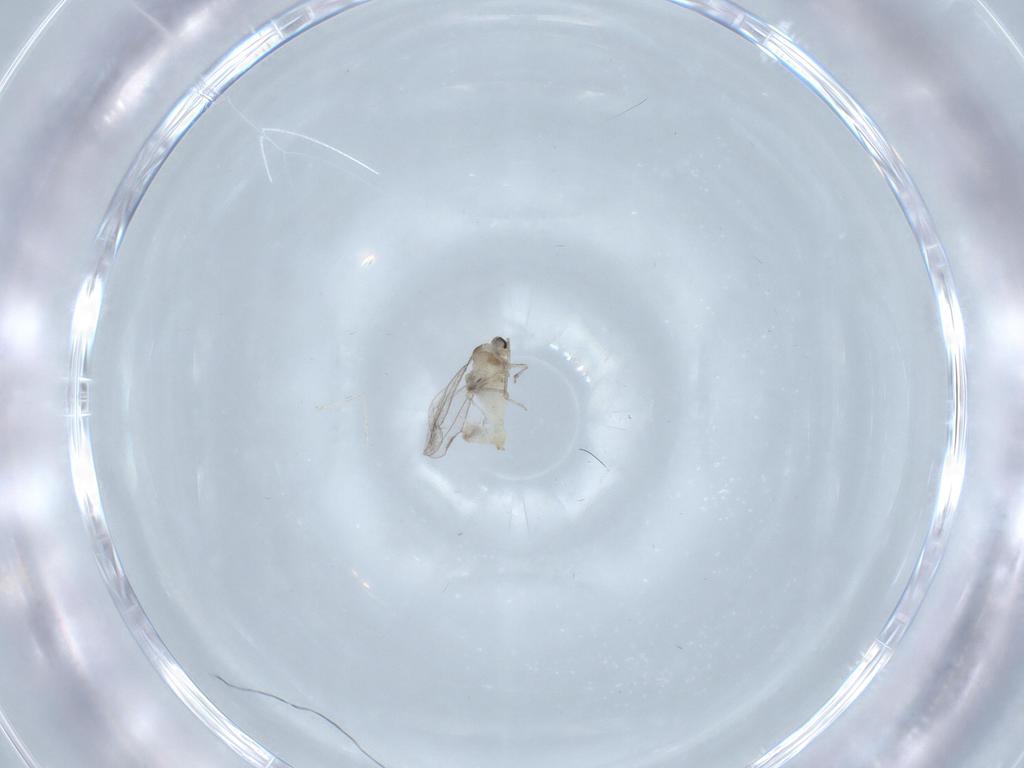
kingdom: Animalia
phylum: Arthropoda
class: Insecta
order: Diptera
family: Cecidomyiidae
